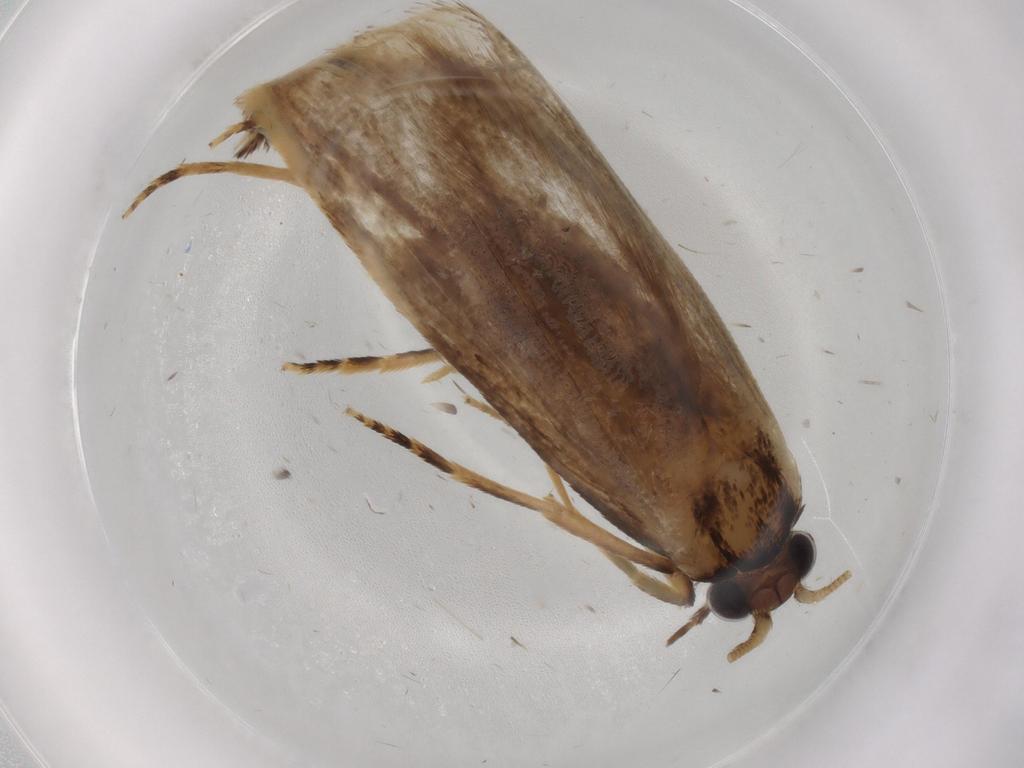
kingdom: Animalia
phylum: Arthropoda
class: Insecta
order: Lepidoptera
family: Tineidae
